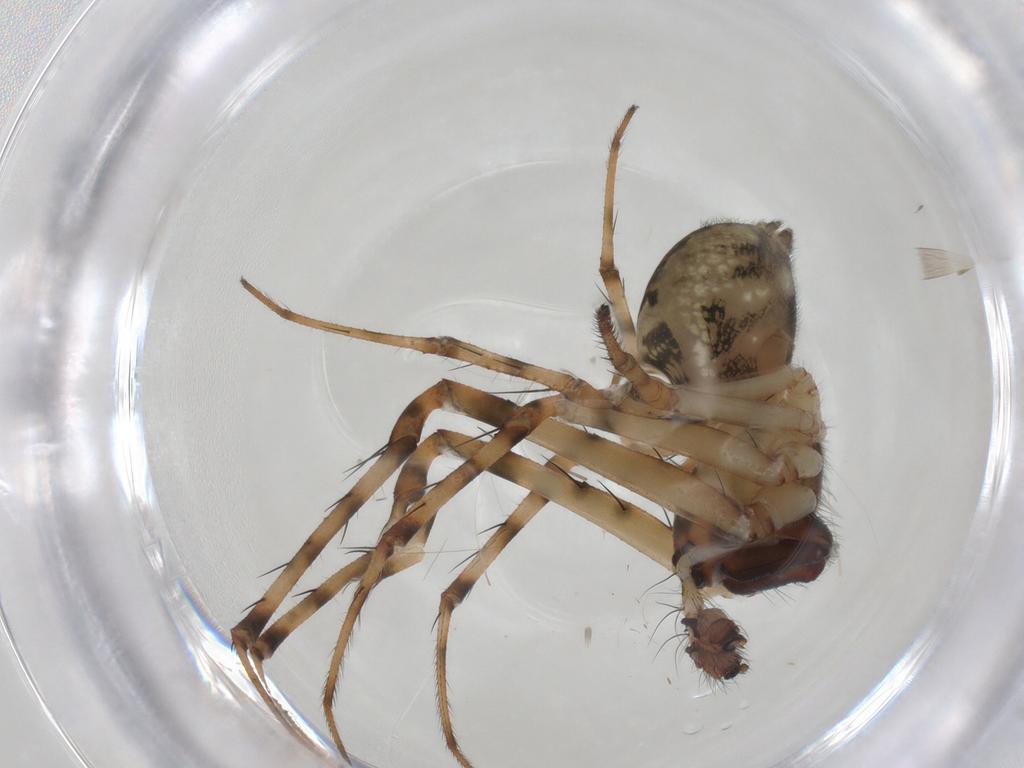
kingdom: Animalia
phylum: Arthropoda
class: Arachnida
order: Araneae
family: Tetragnathidae
